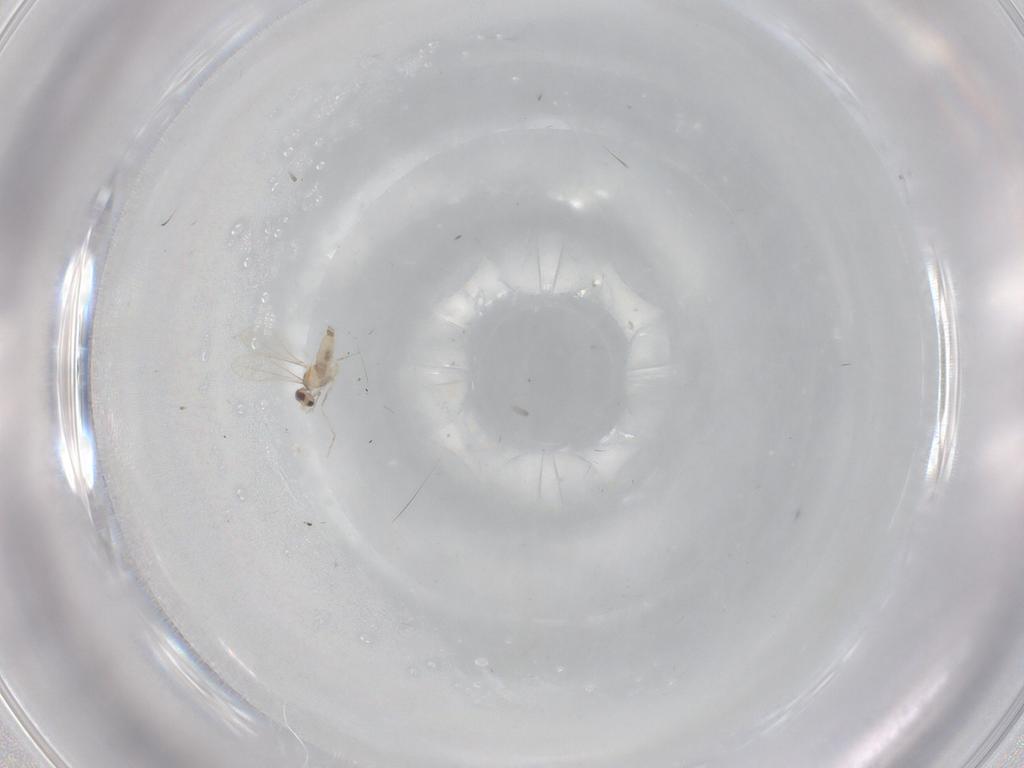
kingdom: Animalia
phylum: Arthropoda
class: Insecta
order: Diptera
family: Psychodidae
